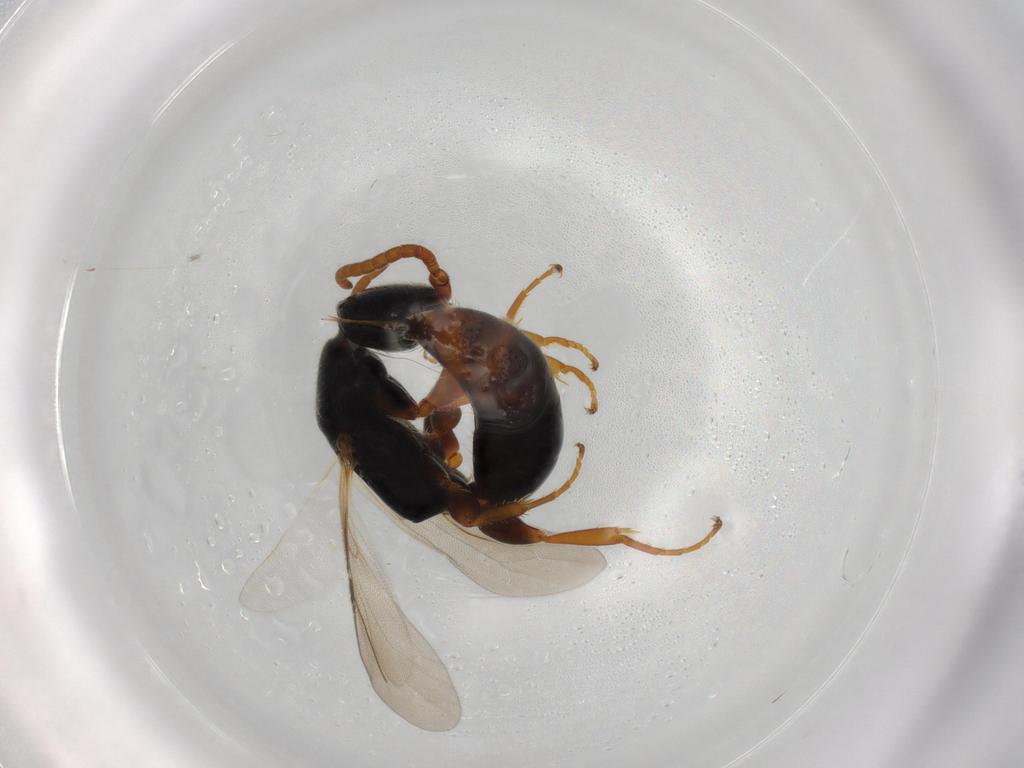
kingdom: Animalia
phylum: Arthropoda
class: Insecta
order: Hymenoptera
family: Bethylidae
